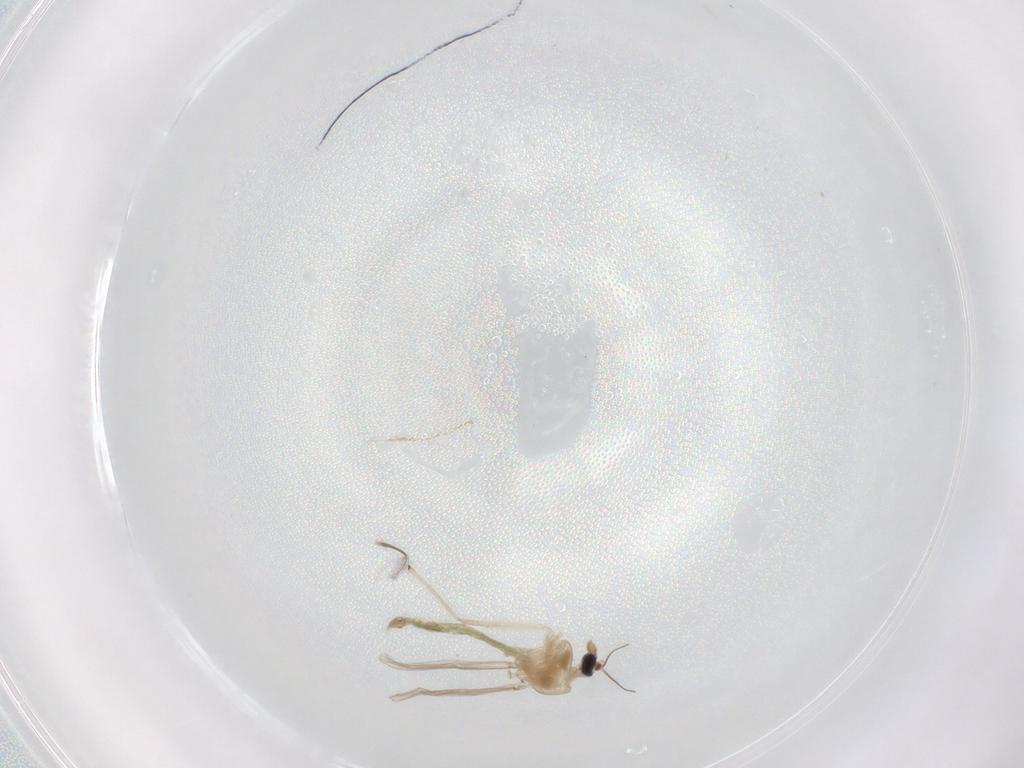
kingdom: Animalia
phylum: Arthropoda
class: Insecta
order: Diptera
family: Chironomidae
